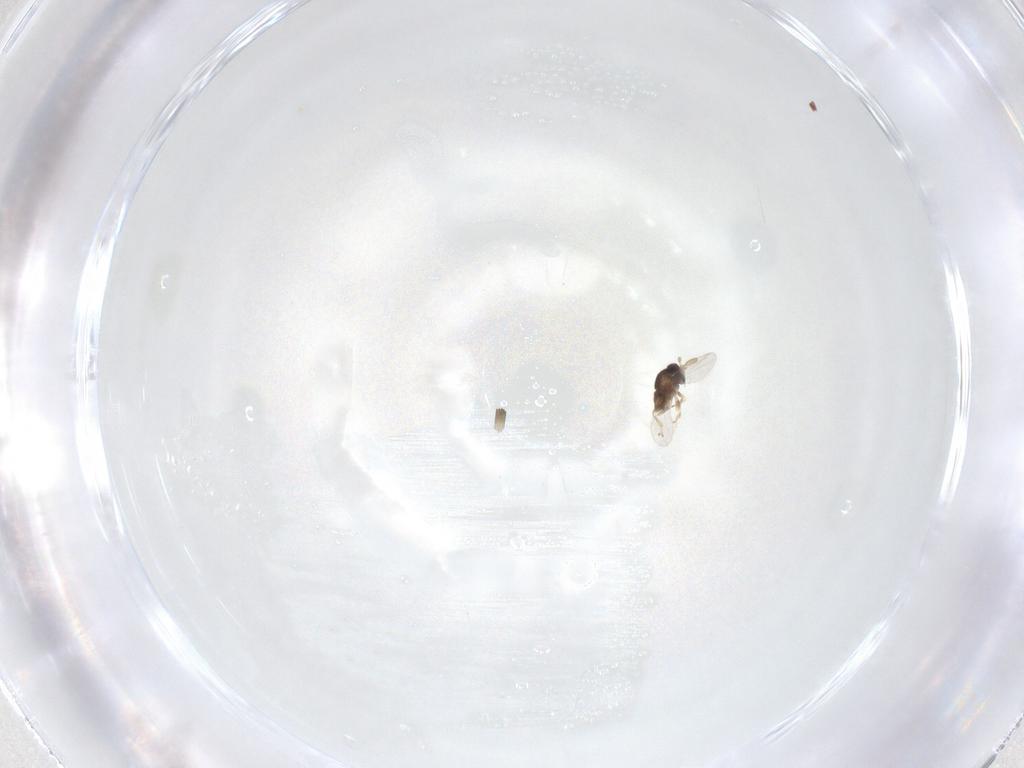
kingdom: Animalia
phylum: Arthropoda
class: Insecta
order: Hymenoptera
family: Encyrtidae
